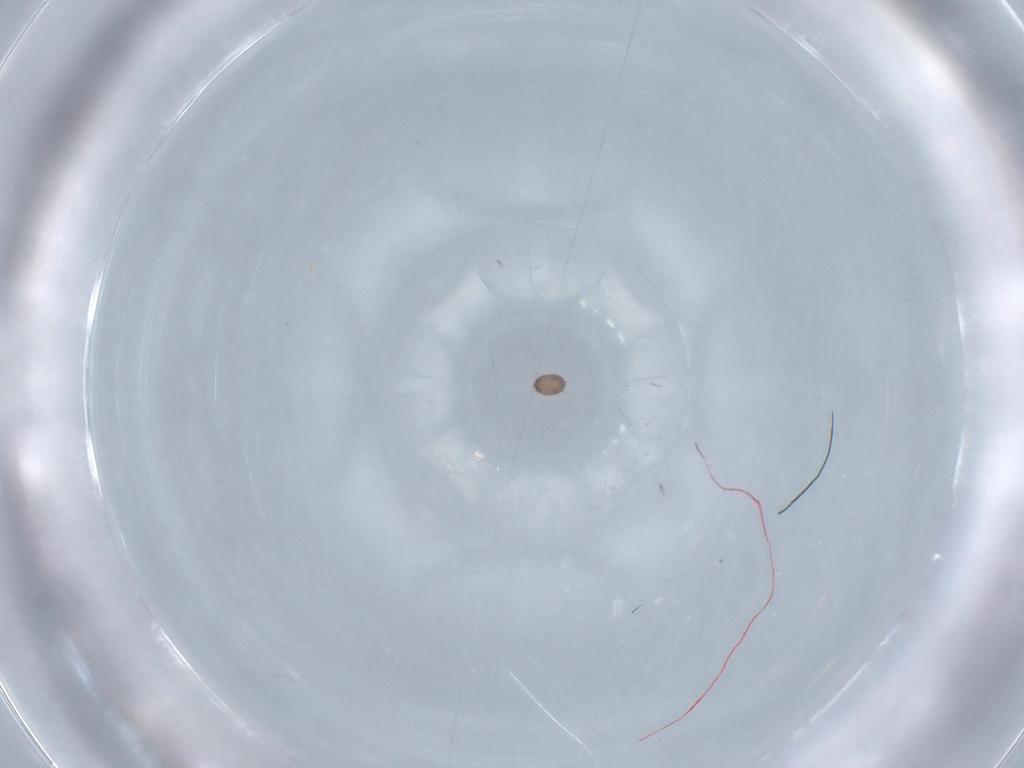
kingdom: Animalia
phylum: Arthropoda
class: Arachnida
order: Mesostigmata
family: Melicharidae
